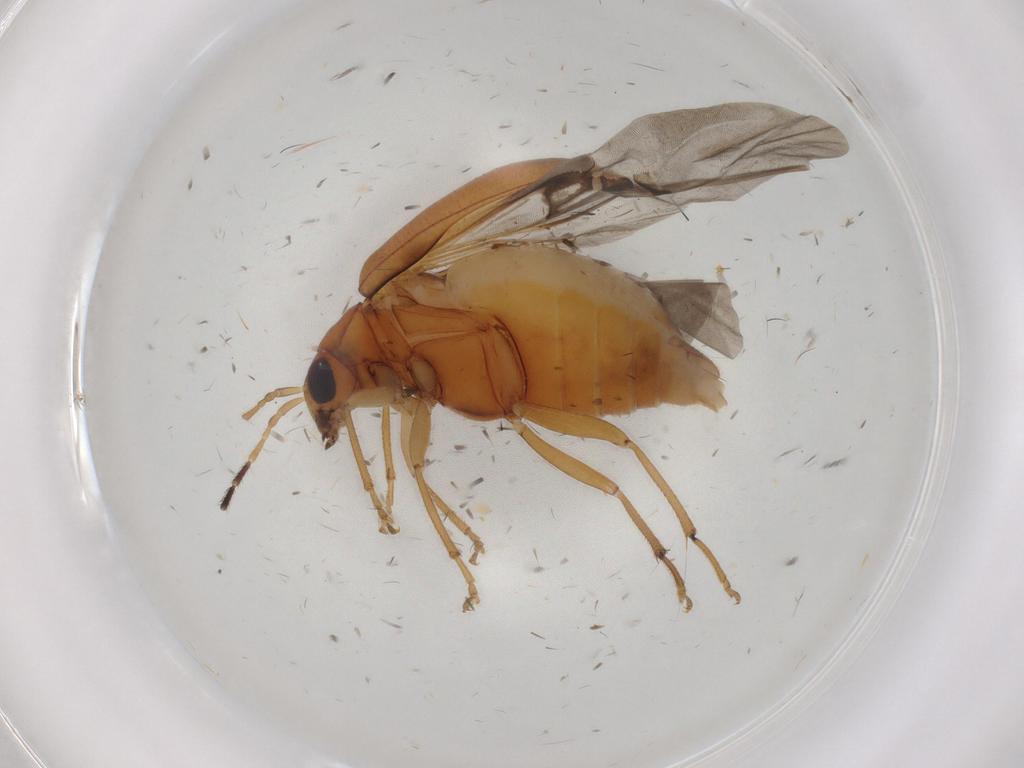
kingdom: Animalia
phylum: Arthropoda
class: Insecta
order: Coleoptera
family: Chrysomelidae
